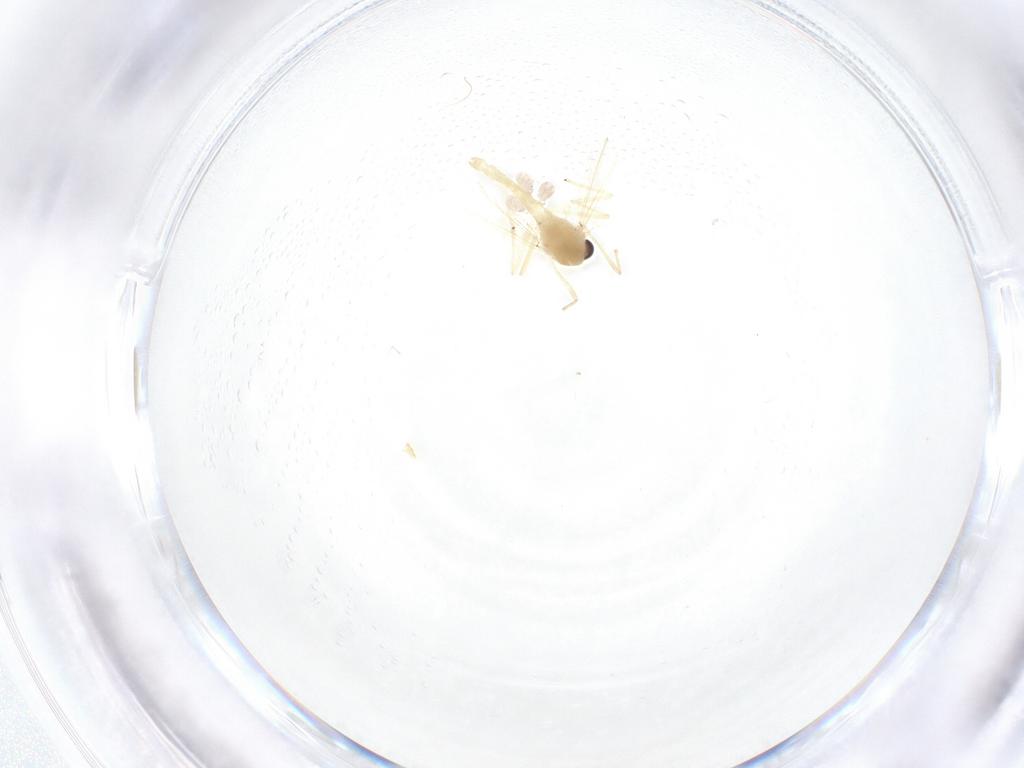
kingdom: Animalia
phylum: Arthropoda
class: Insecta
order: Diptera
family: Chironomidae
